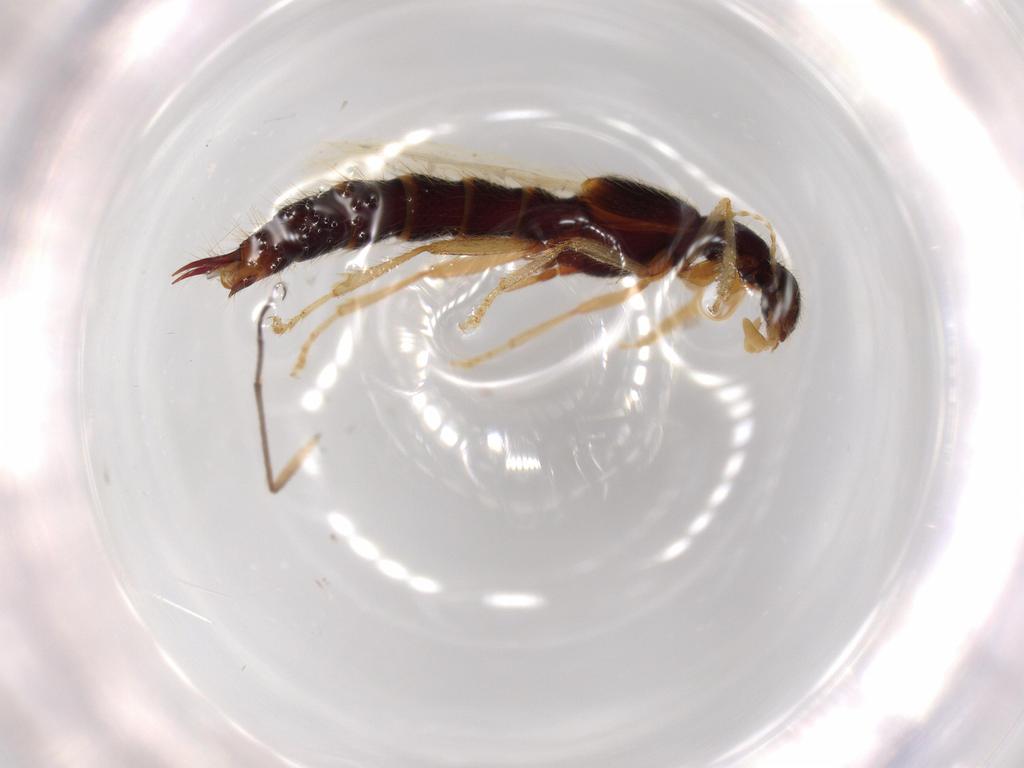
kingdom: Animalia
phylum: Arthropoda
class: Insecta
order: Coleoptera
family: Staphylinidae
